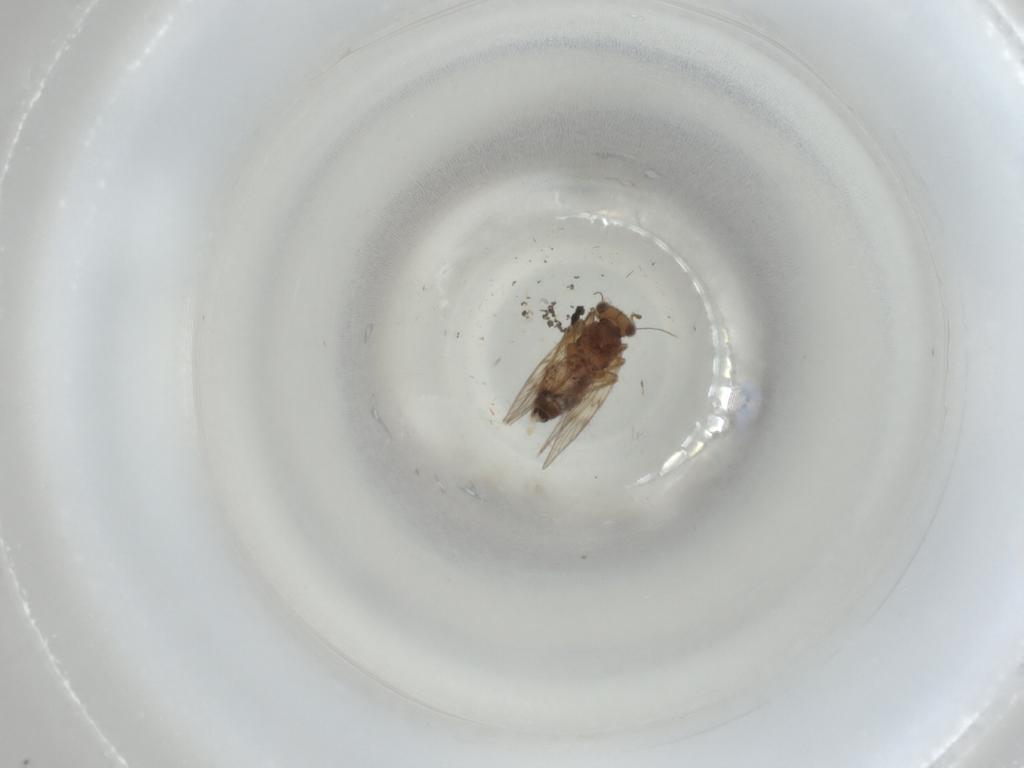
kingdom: Animalia
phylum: Arthropoda
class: Insecta
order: Psocodea
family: Lepidopsocidae
